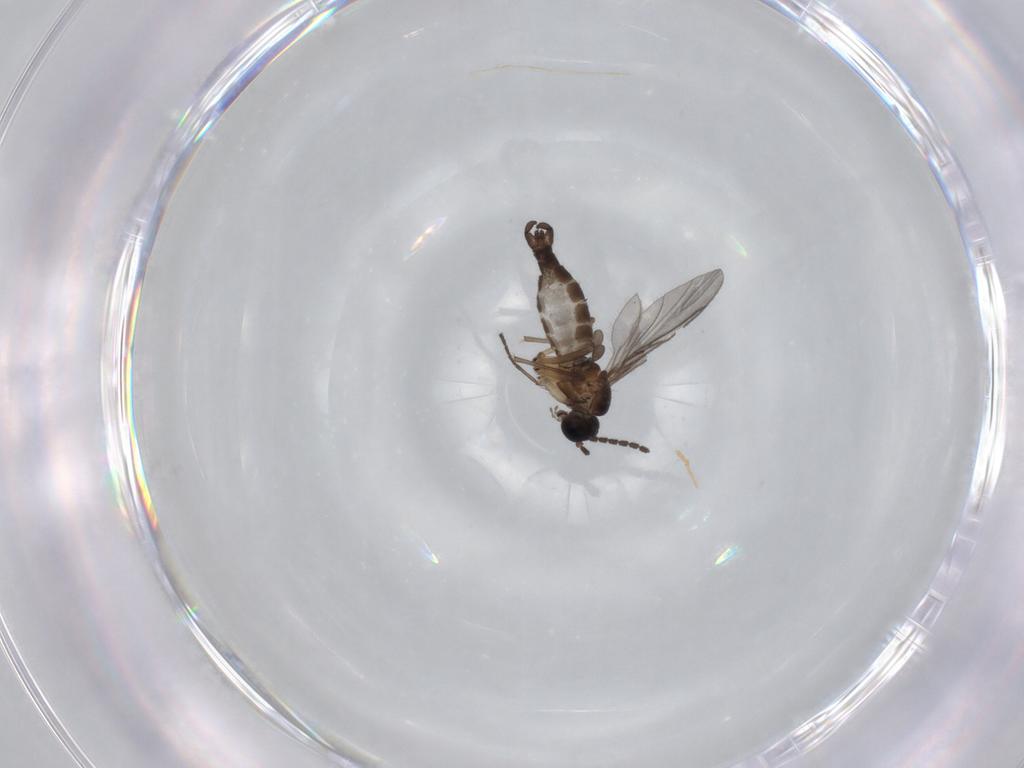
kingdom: Animalia
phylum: Arthropoda
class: Insecta
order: Diptera
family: Sciaridae
